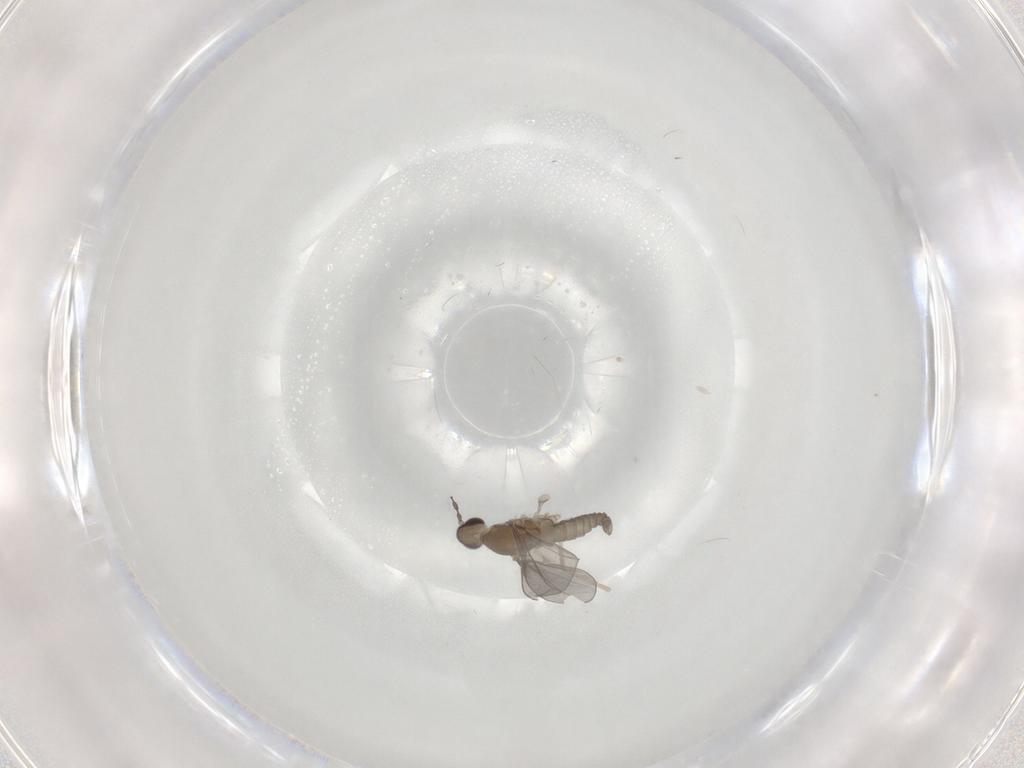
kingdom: Animalia
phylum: Arthropoda
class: Insecta
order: Diptera
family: Cecidomyiidae
